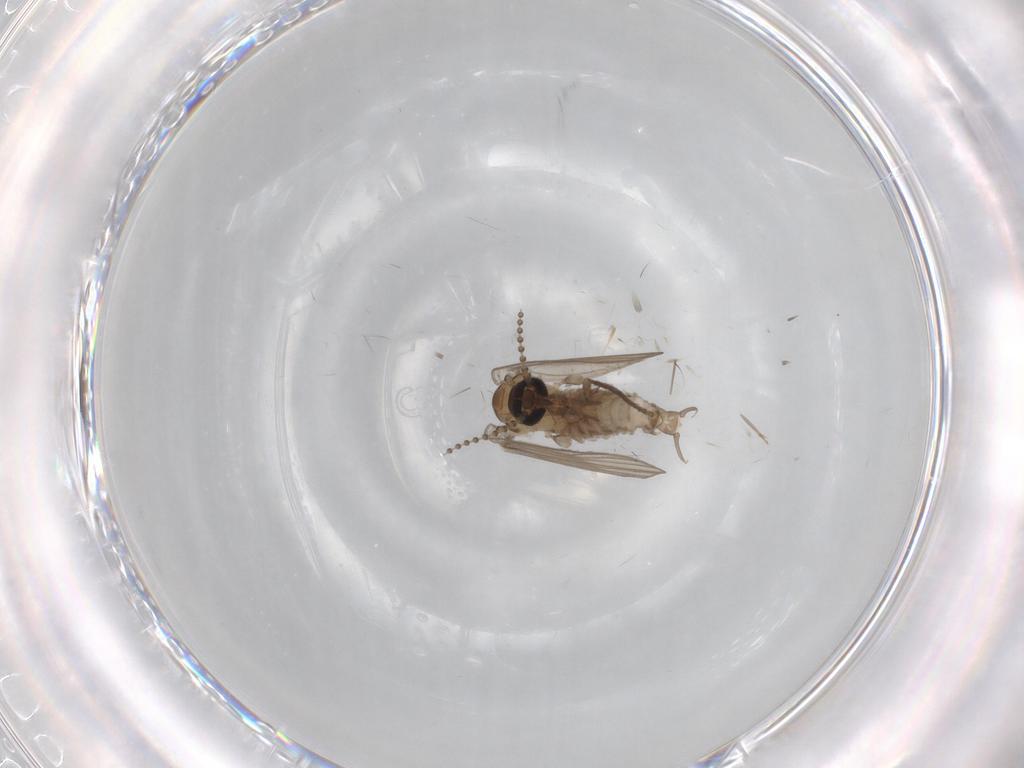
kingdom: Animalia
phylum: Arthropoda
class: Insecta
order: Diptera
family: Psychodidae
